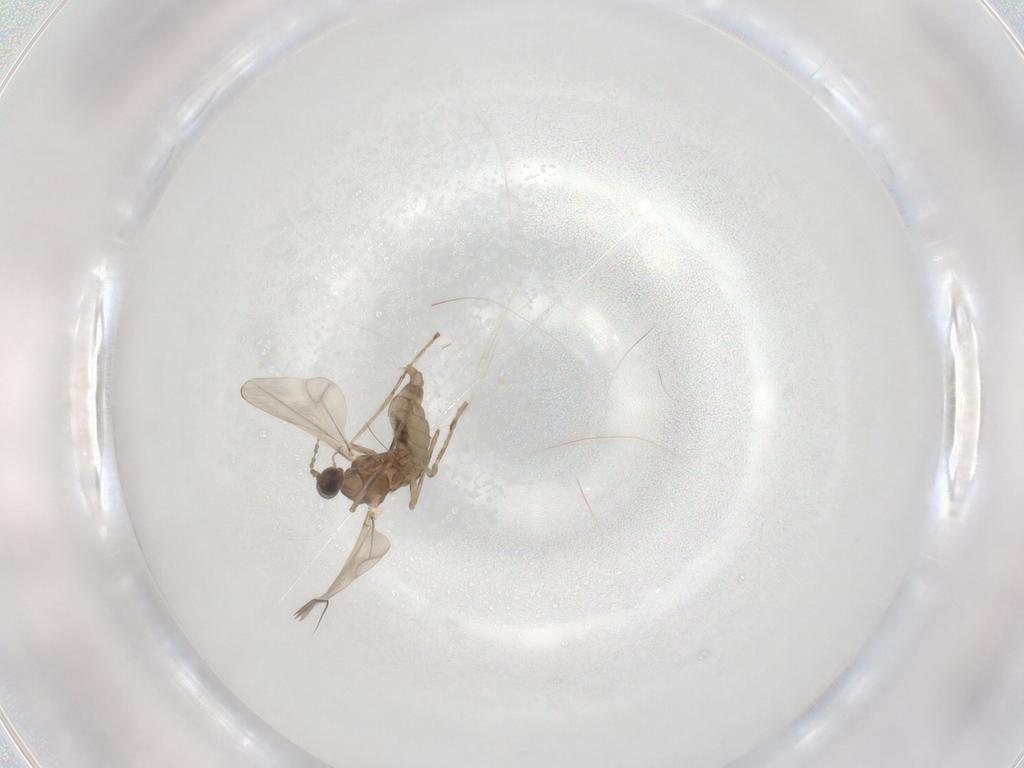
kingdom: Animalia
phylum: Arthropoda
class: Insecta
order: Diptera
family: Cecidomyiidae
